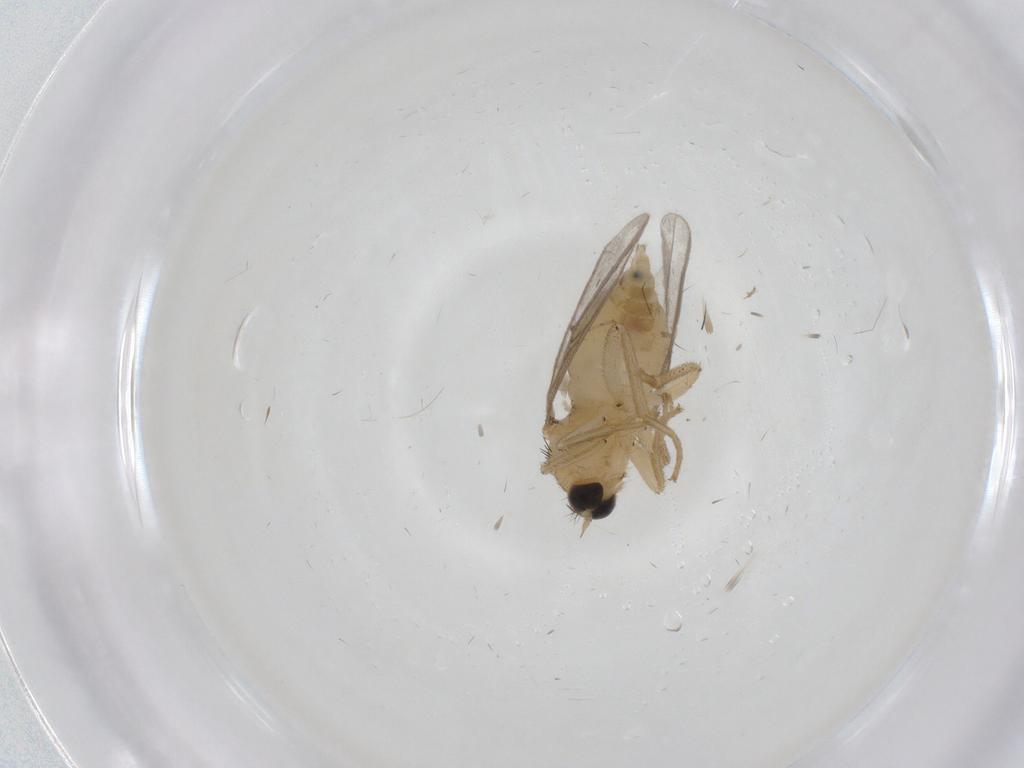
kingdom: Animalia
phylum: Arthropoda
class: Insecta
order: Diptera
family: Hybotidae
